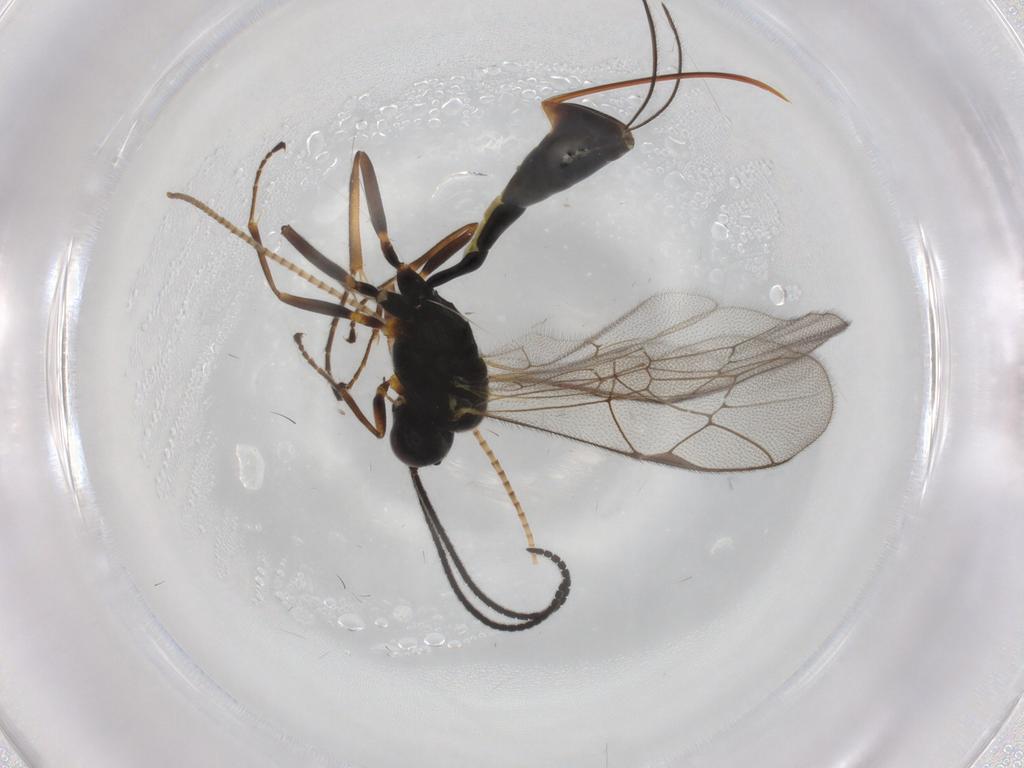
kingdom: Animalia
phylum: Arthropoda
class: Insecta
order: Hymenoptera
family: Ichneumonidae
